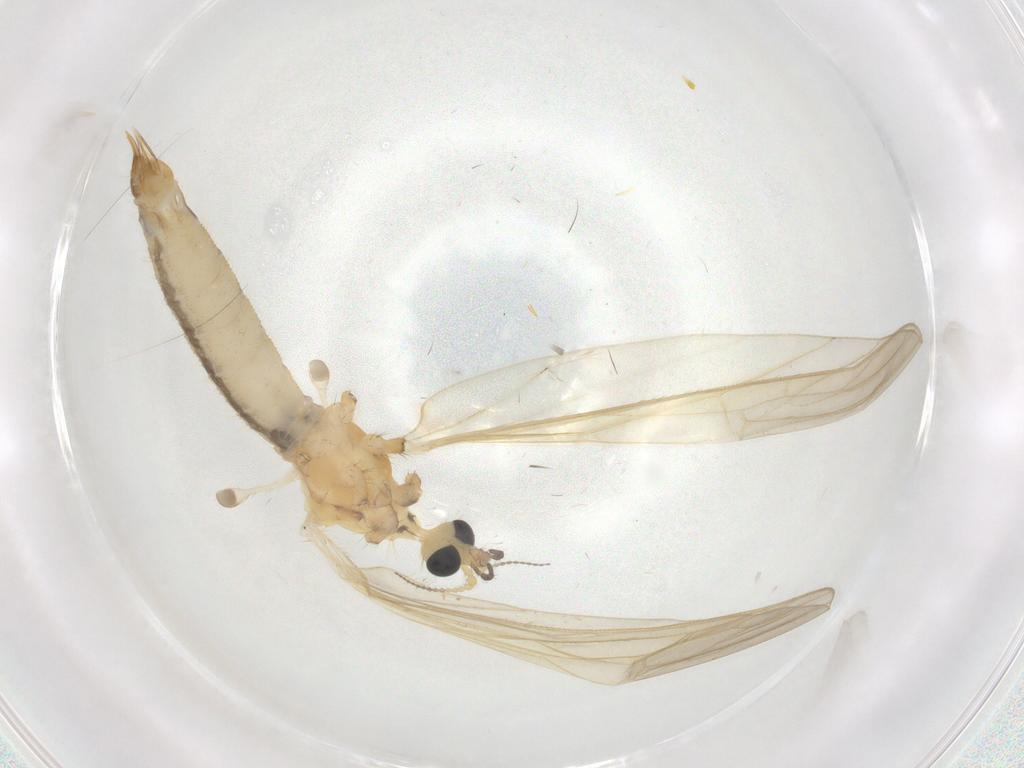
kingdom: Animalia
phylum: Arthropoda
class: Insecta
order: Diptera
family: Limoniidae
